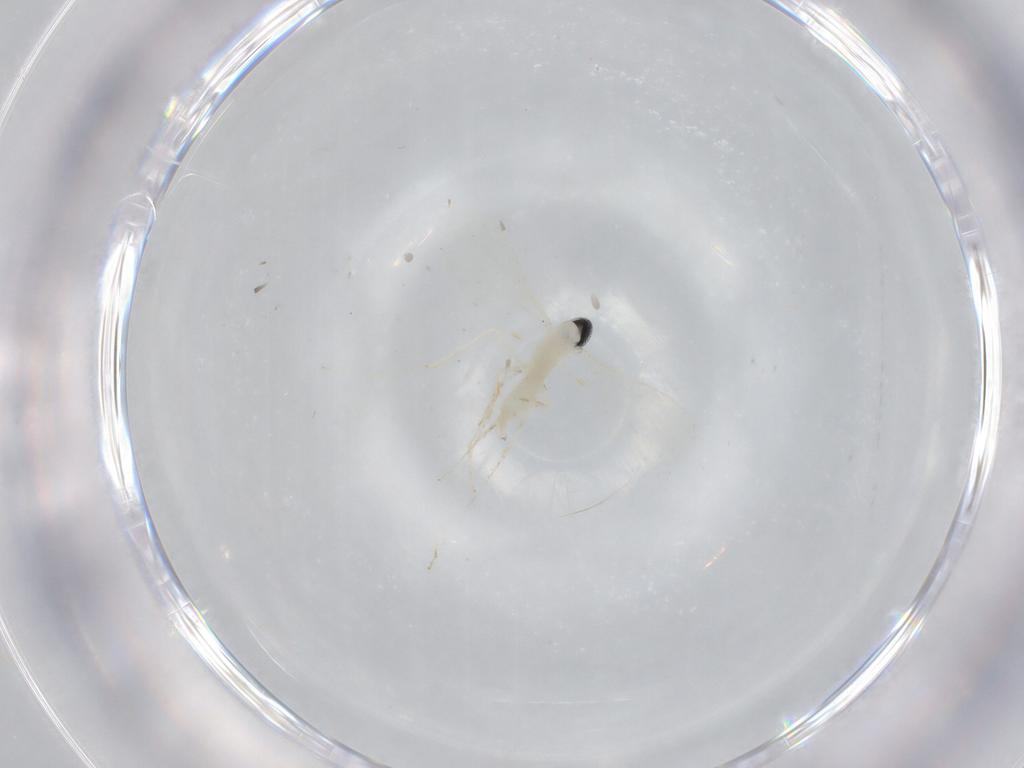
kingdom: Animalia
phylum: Arthropoda
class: Insecta
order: Diptera
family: Cecidomyiidae
